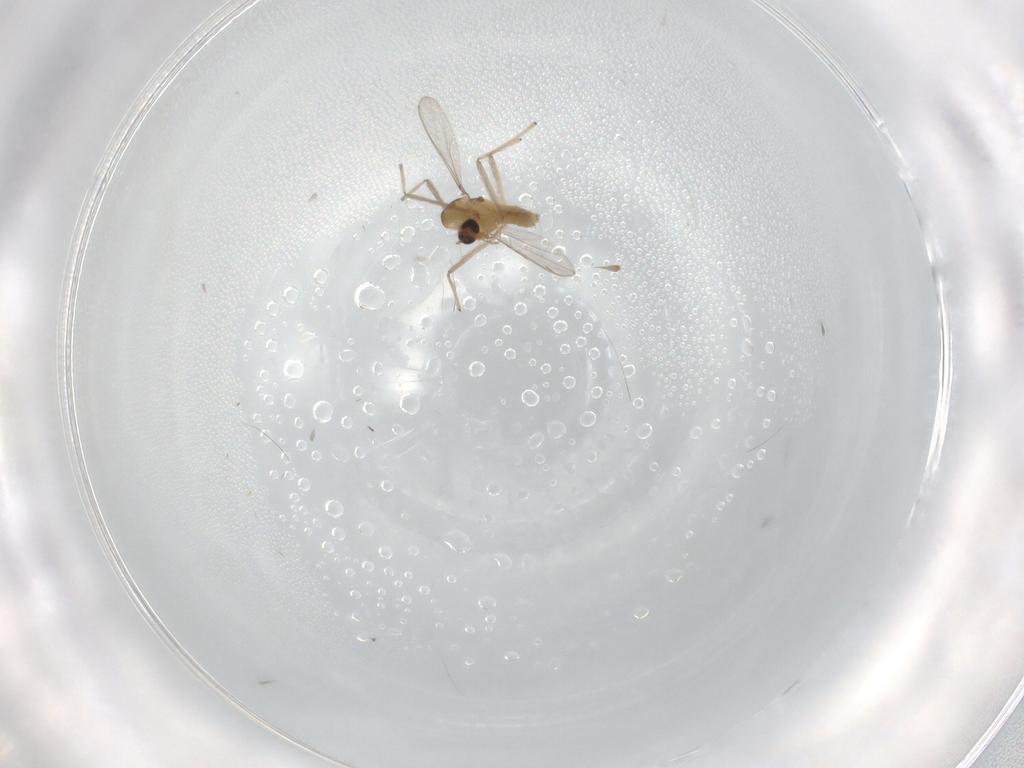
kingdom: Animalia
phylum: Arthropoda
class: Insecta
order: Diptera
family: Chironomidae
